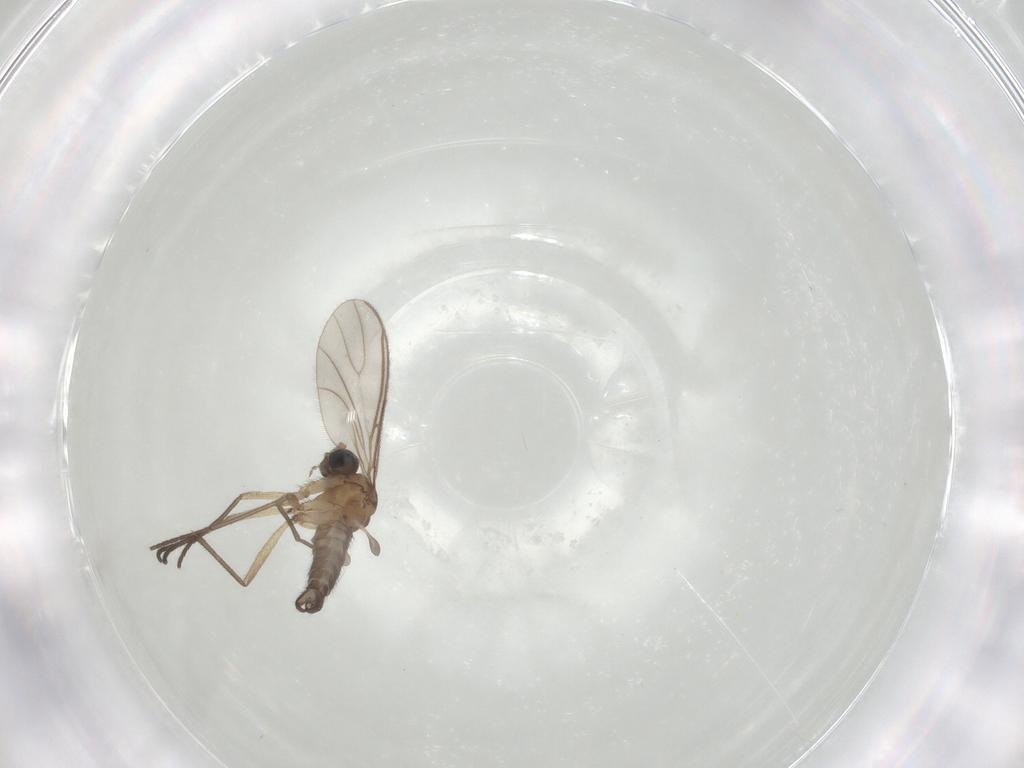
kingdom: Animalia
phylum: Arthropoda
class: Insecta
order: Diptera
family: Sciaridae
